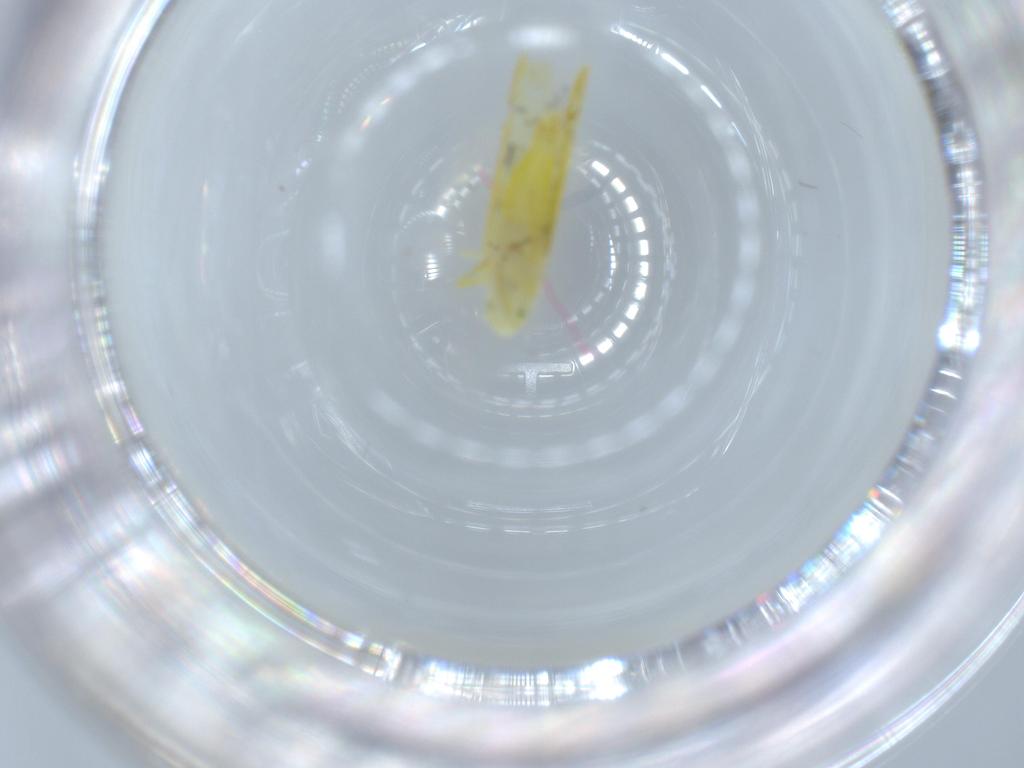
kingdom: Animalia
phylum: Arthropoda
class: Insecta
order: Hemiptera
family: Cicadellidae
